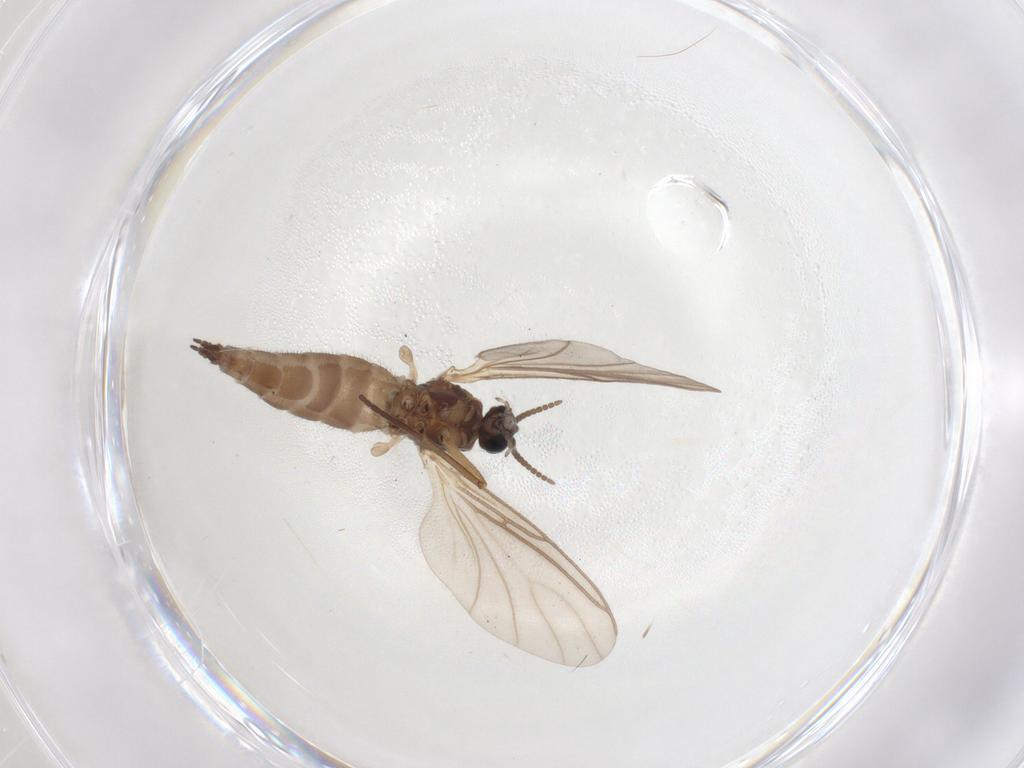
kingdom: Animalia
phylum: Arthropoda
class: Insecta
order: Diptera
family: Sciaridae
